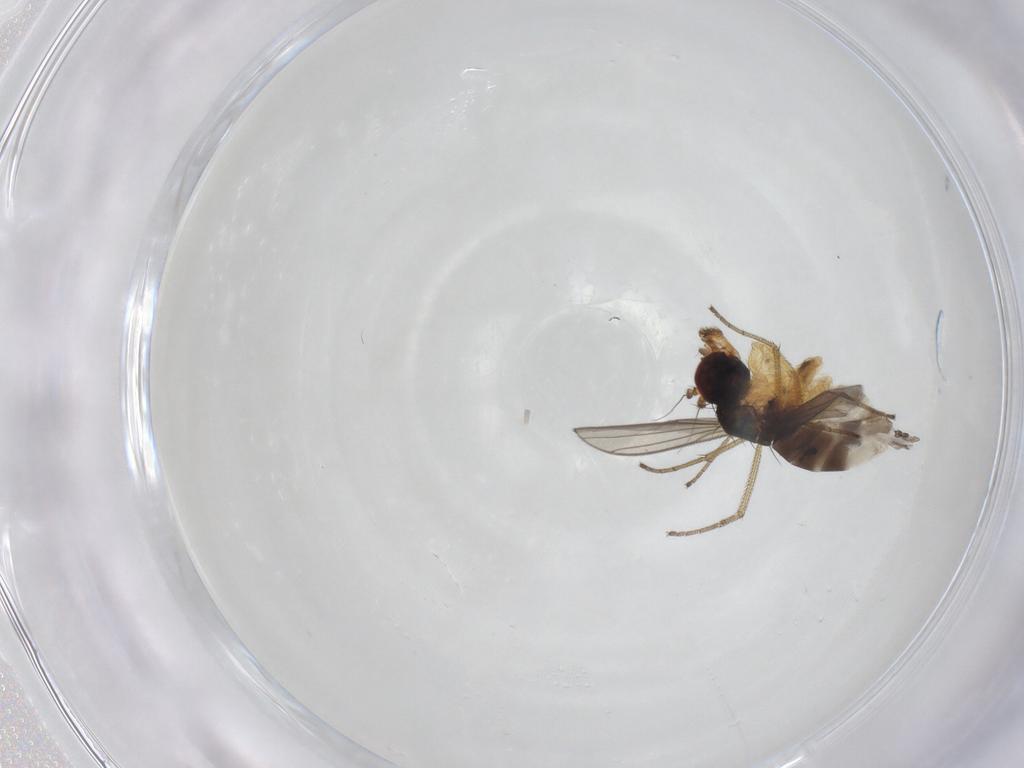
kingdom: Animalia
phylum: Arthropoda
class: Insecta
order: Diptera
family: Dolichopodidae
